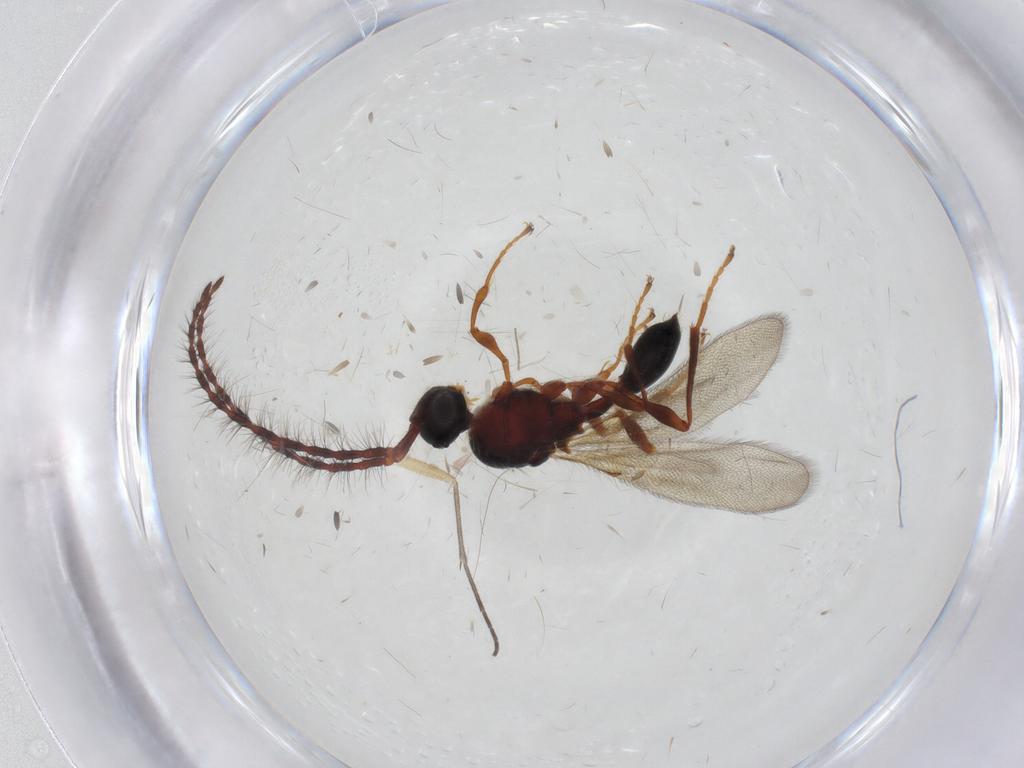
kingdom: Animalia
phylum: Arthropoda
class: Insecta
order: Hymenoptera
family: Diapriidae
